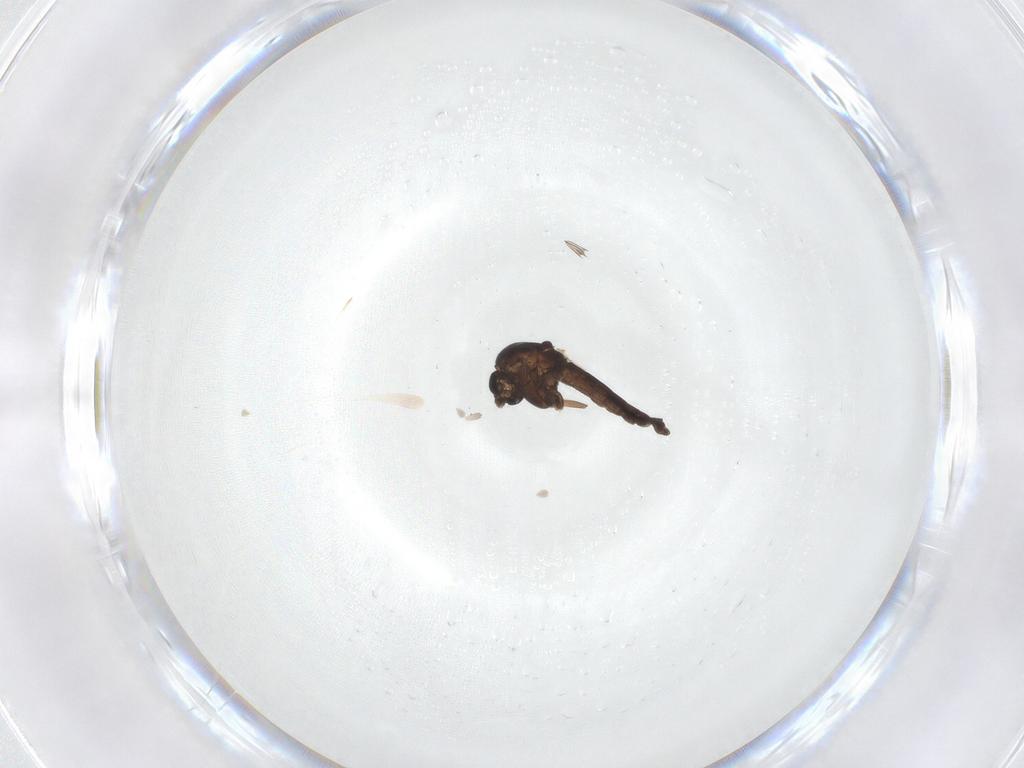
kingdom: Animalia
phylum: Arthropoda
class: Insecta
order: Diptera
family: Chironomidae
